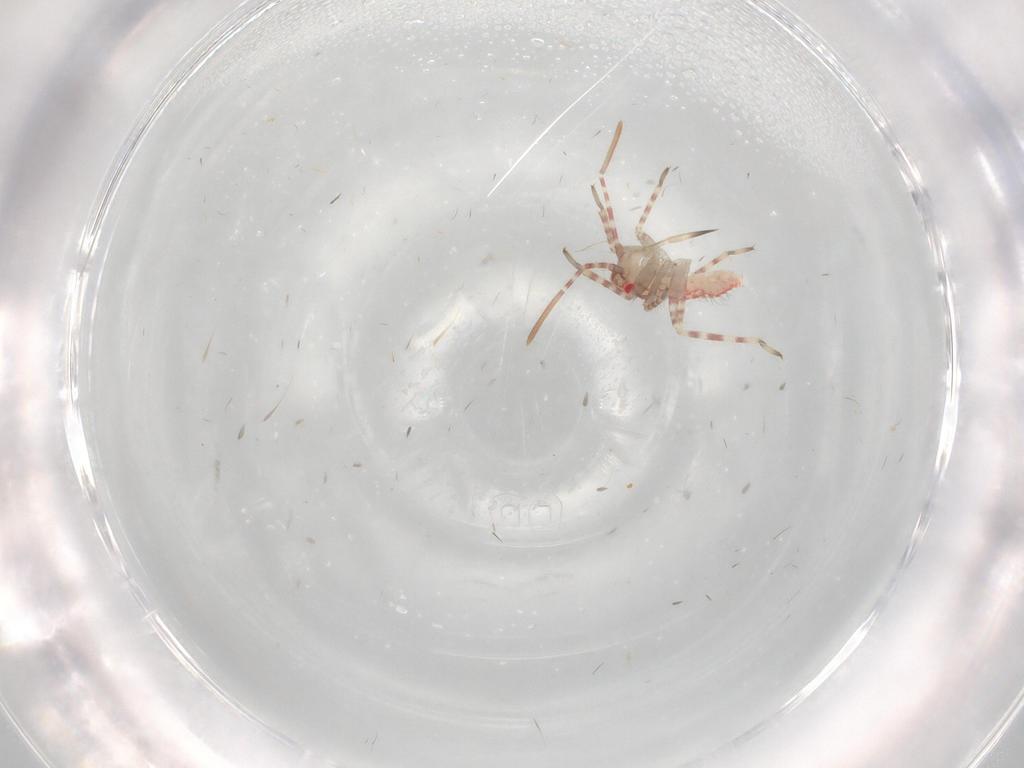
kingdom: Animalia
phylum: Arthropoda
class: Insecta
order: Hemiptera
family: Miridae
